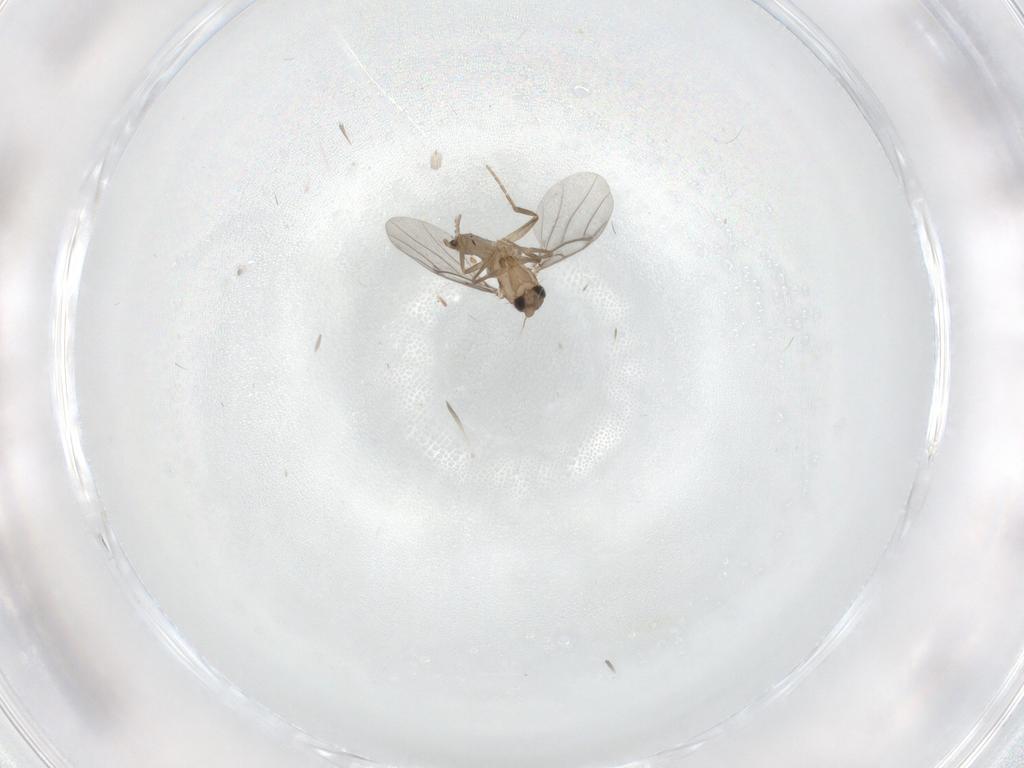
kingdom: Animalia
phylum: Arthropoda
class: Insecta
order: Diptera
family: Cecidomyiidae
